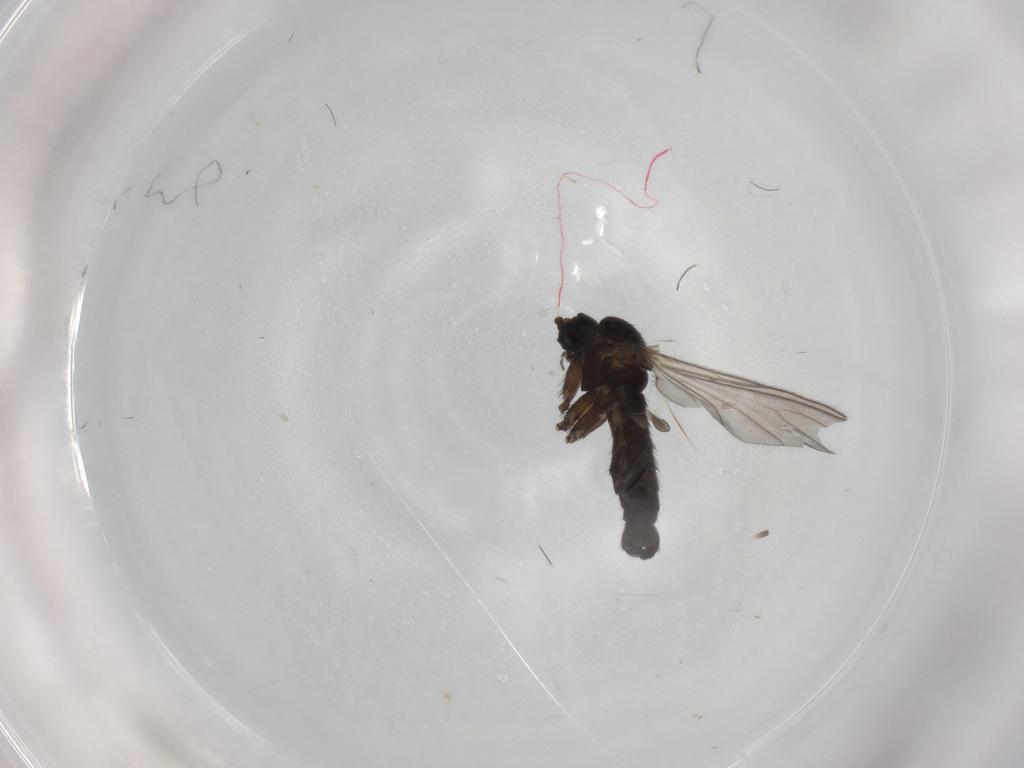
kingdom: Animalia
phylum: Arthropoda
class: Insecta
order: Diptera
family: Sciaridae
